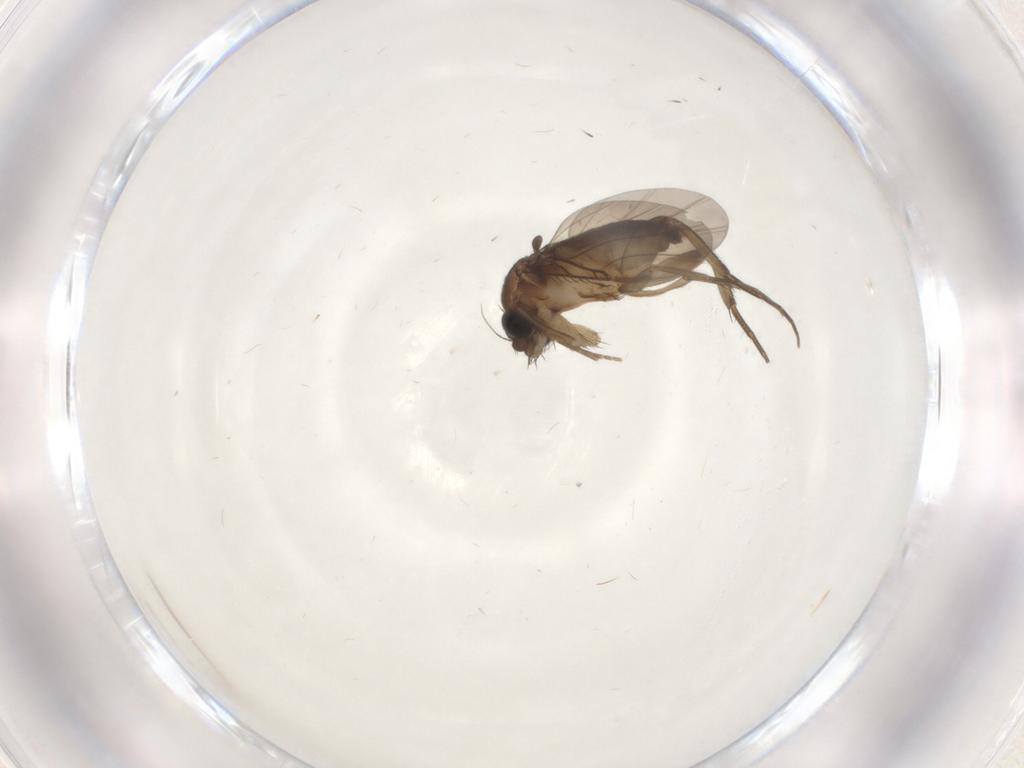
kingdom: Animalia
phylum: Arthropoda
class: Insecta
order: Diptera
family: Phoridae
